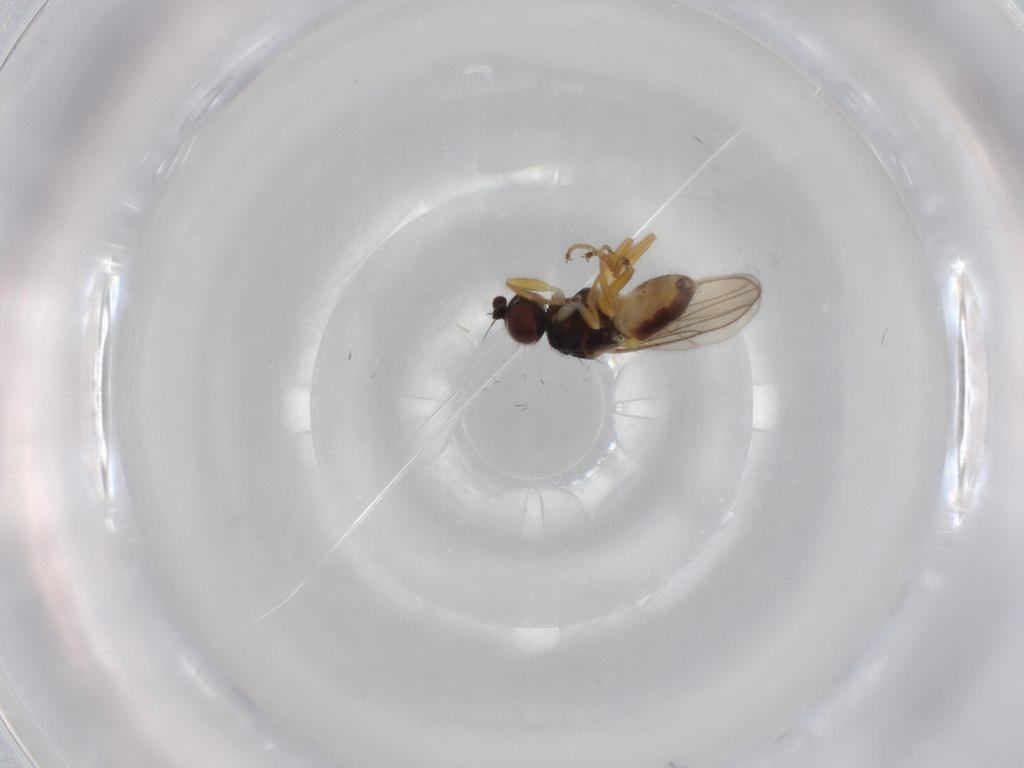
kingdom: Animalia
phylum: Arthropoda
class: Insecta
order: Diptera
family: Chloropidae
